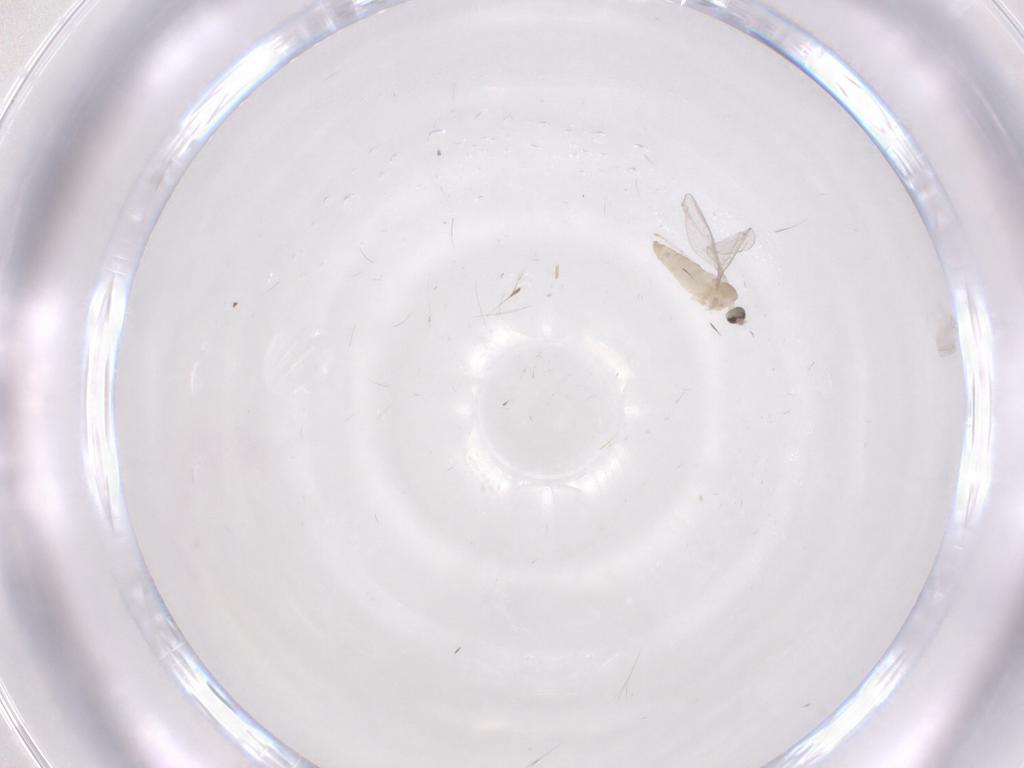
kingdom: Animalia
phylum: Arthropoda
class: Insecta
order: Diptera
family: Cecidomyiidae
